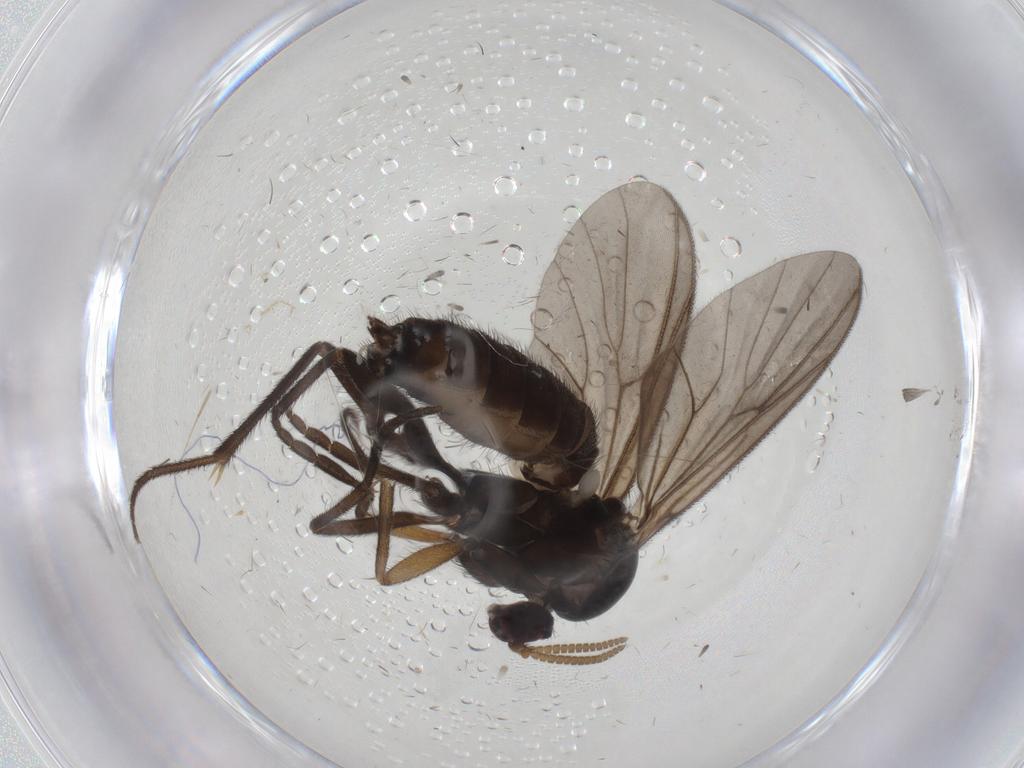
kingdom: Animalia
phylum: Arthropoda
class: Insecta
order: Diptera
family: Mycetophilidae
